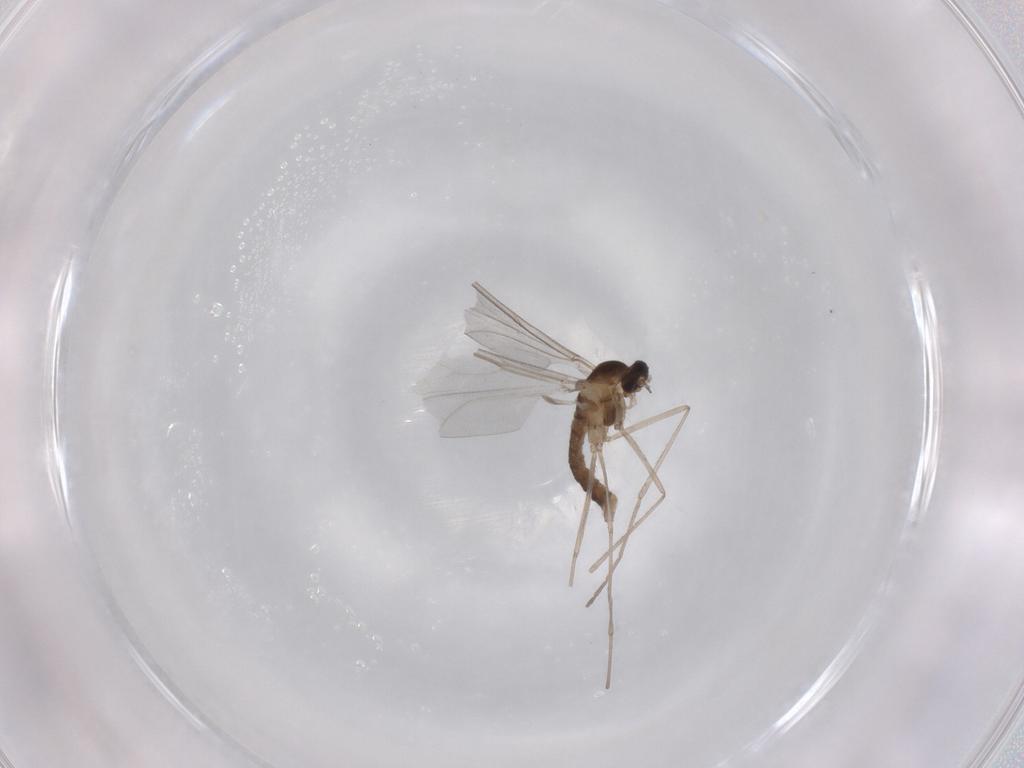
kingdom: Animalia
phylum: Arthropoda
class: Insecta
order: Diptera
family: Cecidomyiidae
